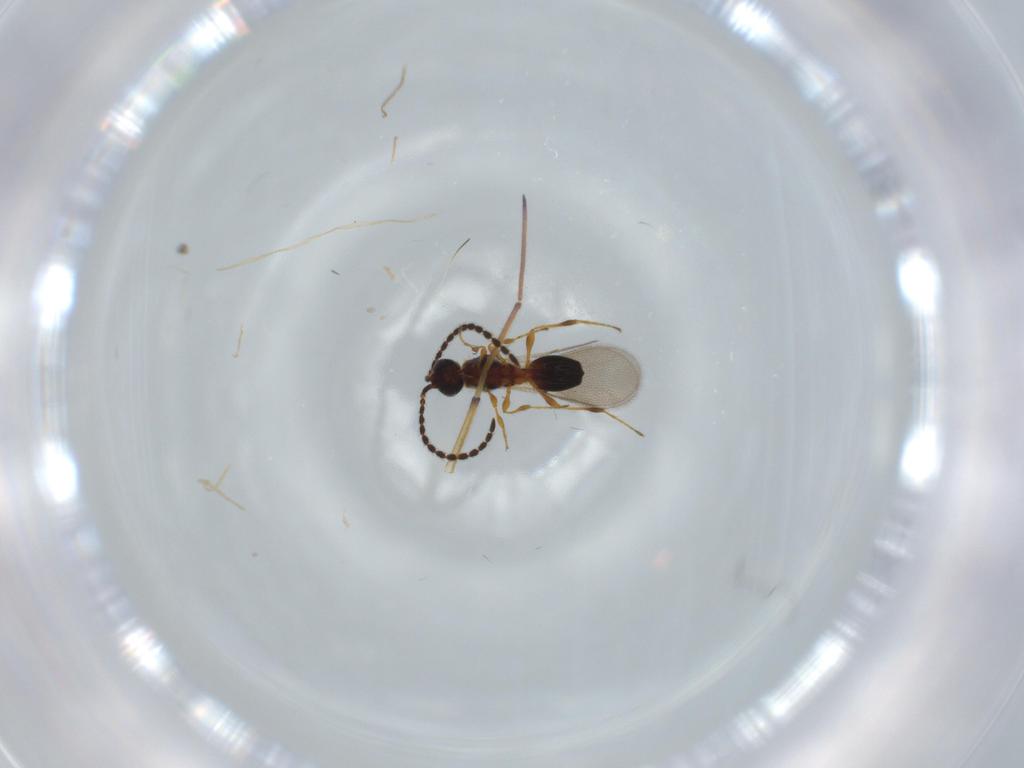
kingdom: Animalia
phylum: Arthropoda
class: Insecta
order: Hymenoptera
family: Diapriidae
